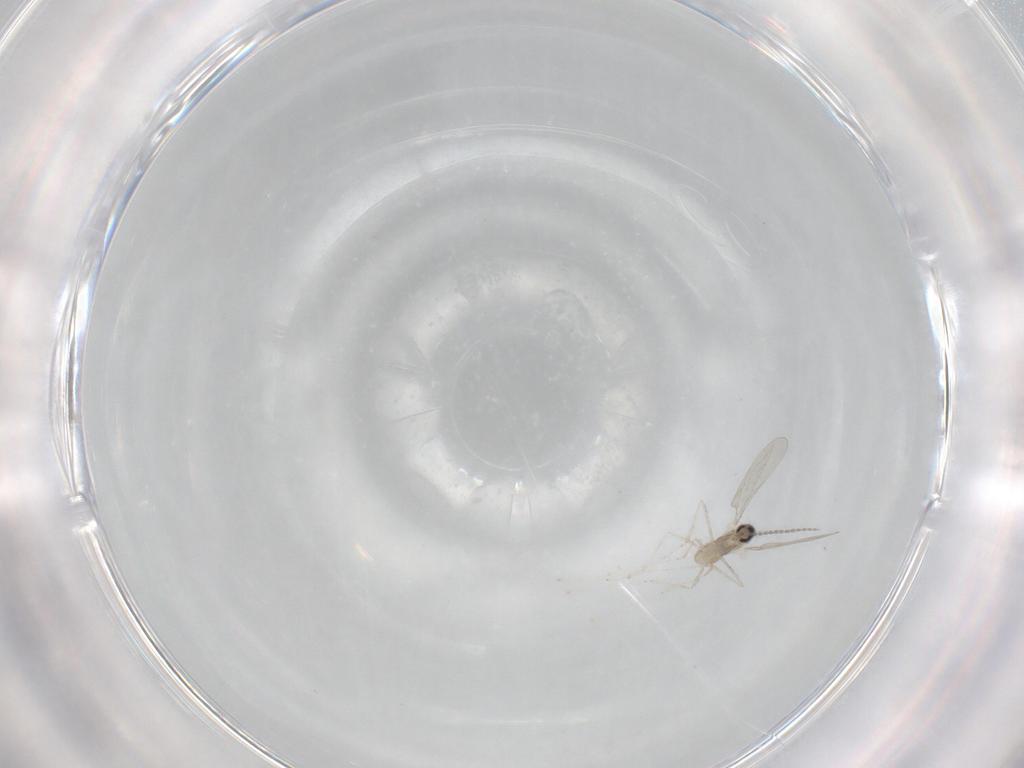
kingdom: Animalia
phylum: Arthropoda
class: Insecta
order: Diptera
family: Cecidomyiidae
